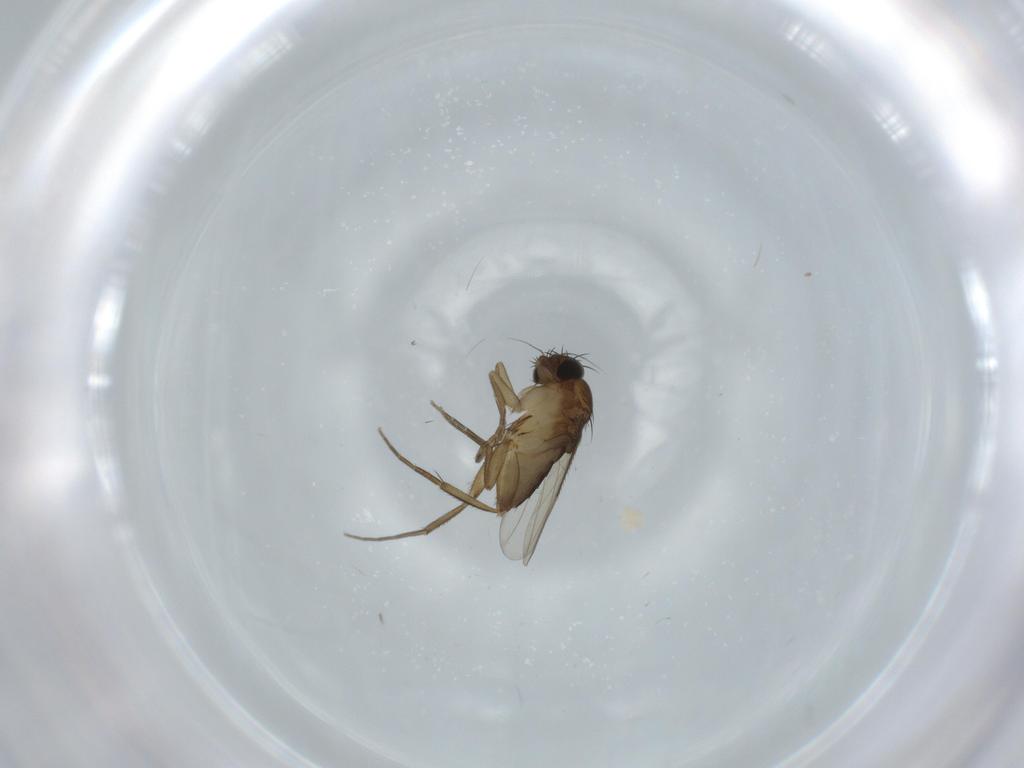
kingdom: Animalia
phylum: Arthropoda
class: Insecta
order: Diptera
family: Phoridae
